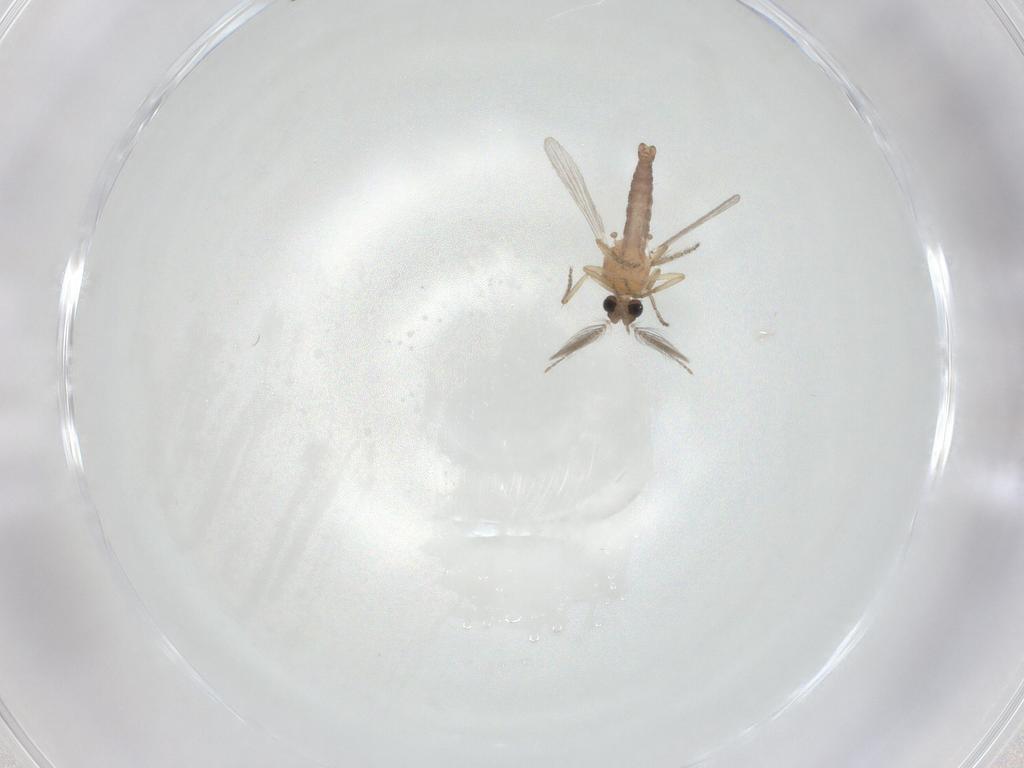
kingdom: Animalia
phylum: Arthropoda
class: Insecta
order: Diptera
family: Ceratopogonidae
